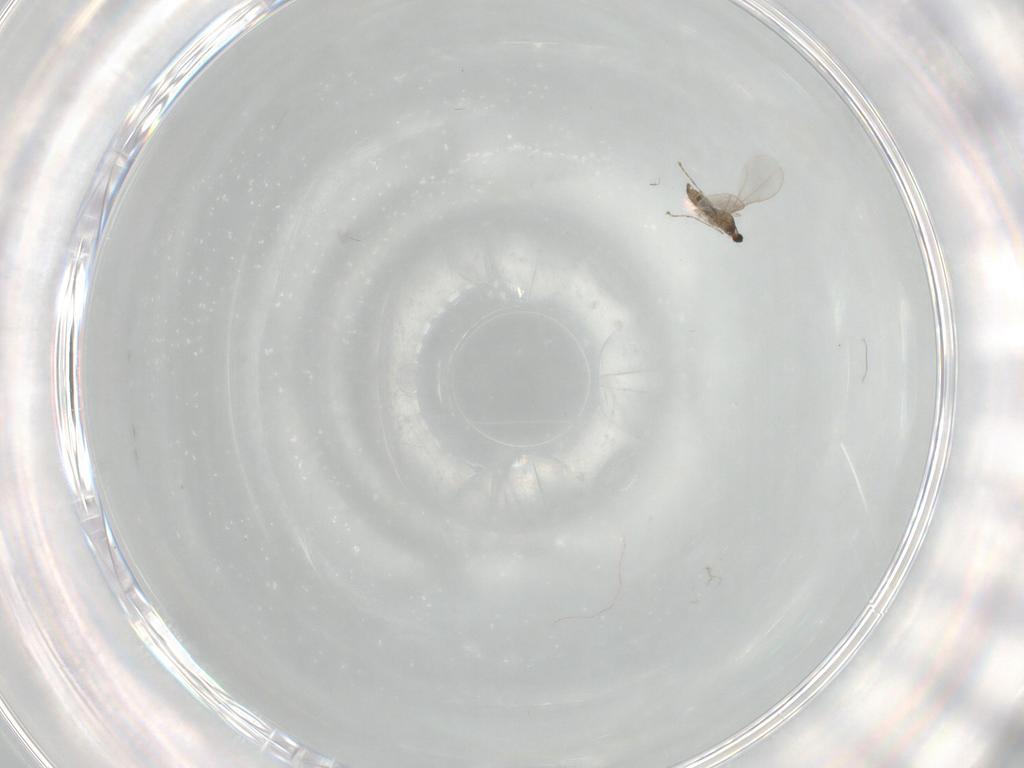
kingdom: Animalia
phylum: Arthropoda
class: Insecta
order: Diptera
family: Cecidomyiidae
